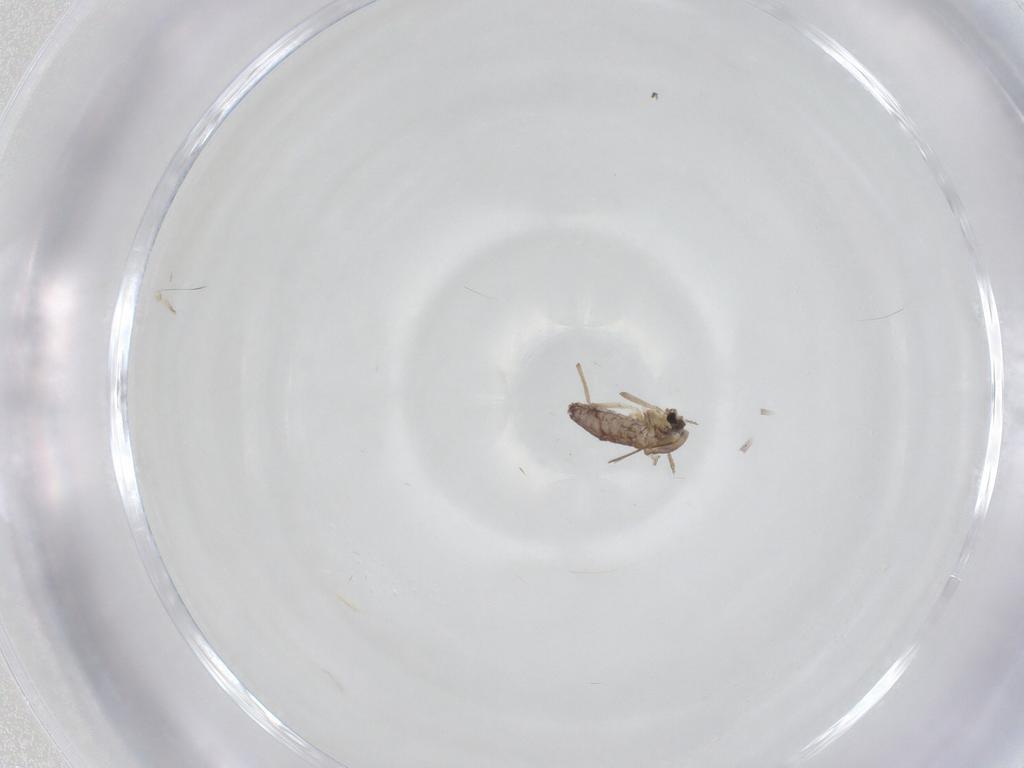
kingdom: Animalia
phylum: Arthropoda
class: Insecta
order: Diptera
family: Chironomidae
